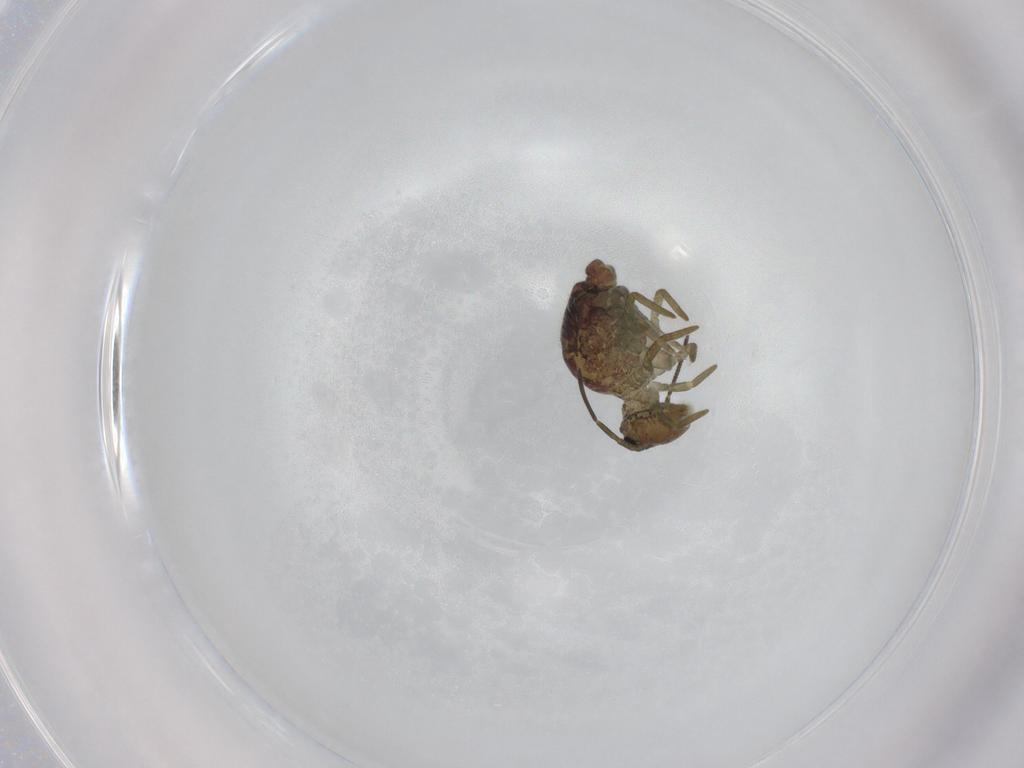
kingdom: Animalia
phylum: Arthropoda
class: Collembola
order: Symphypleona
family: Sminthuridae
